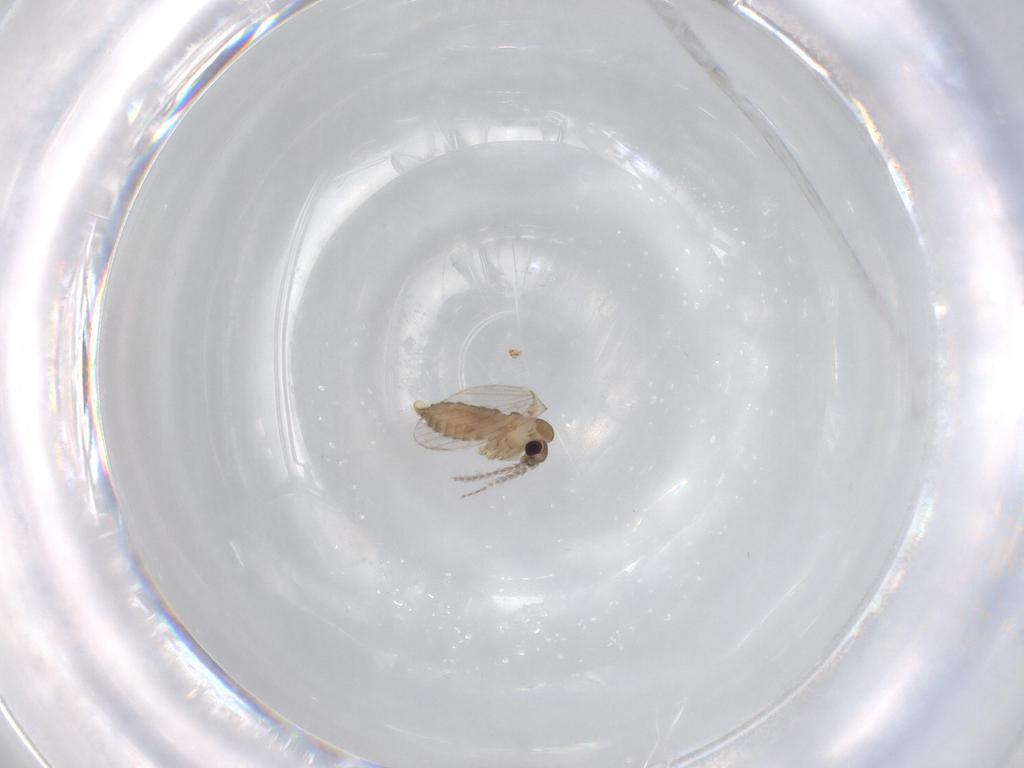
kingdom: Animalia
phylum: Arthropoda
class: Insecta
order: Diptera
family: Psychodidae
